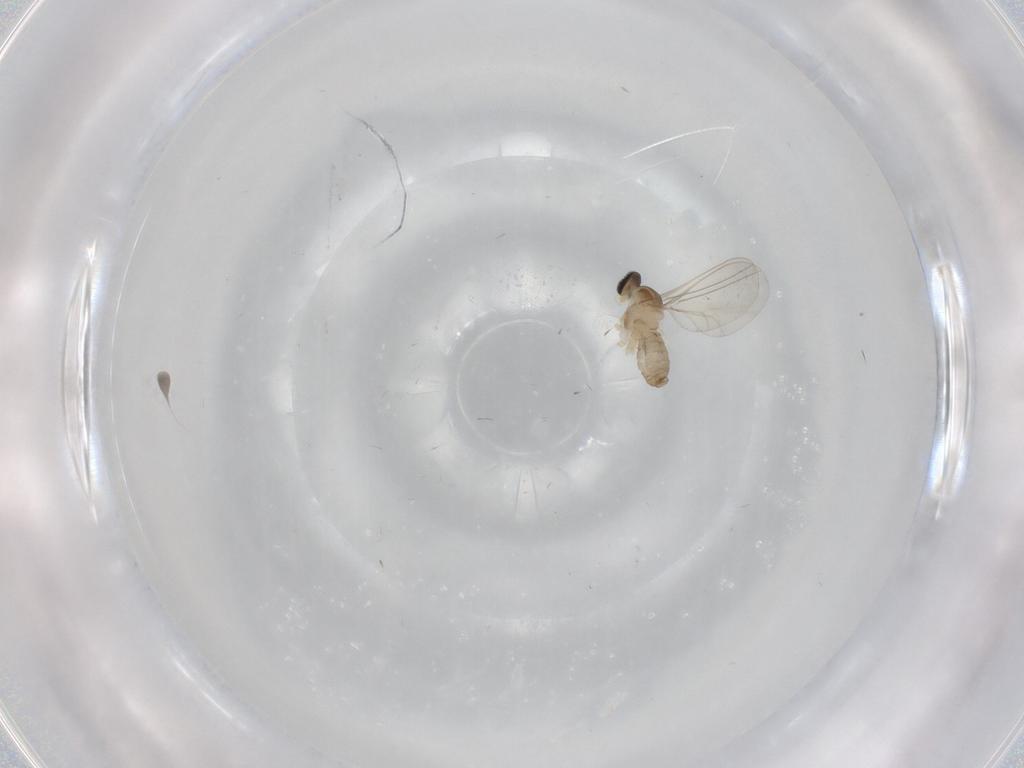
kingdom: Animalia
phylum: Arthropoda
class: Insecta
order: Diptera
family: Cecidomyiidae
